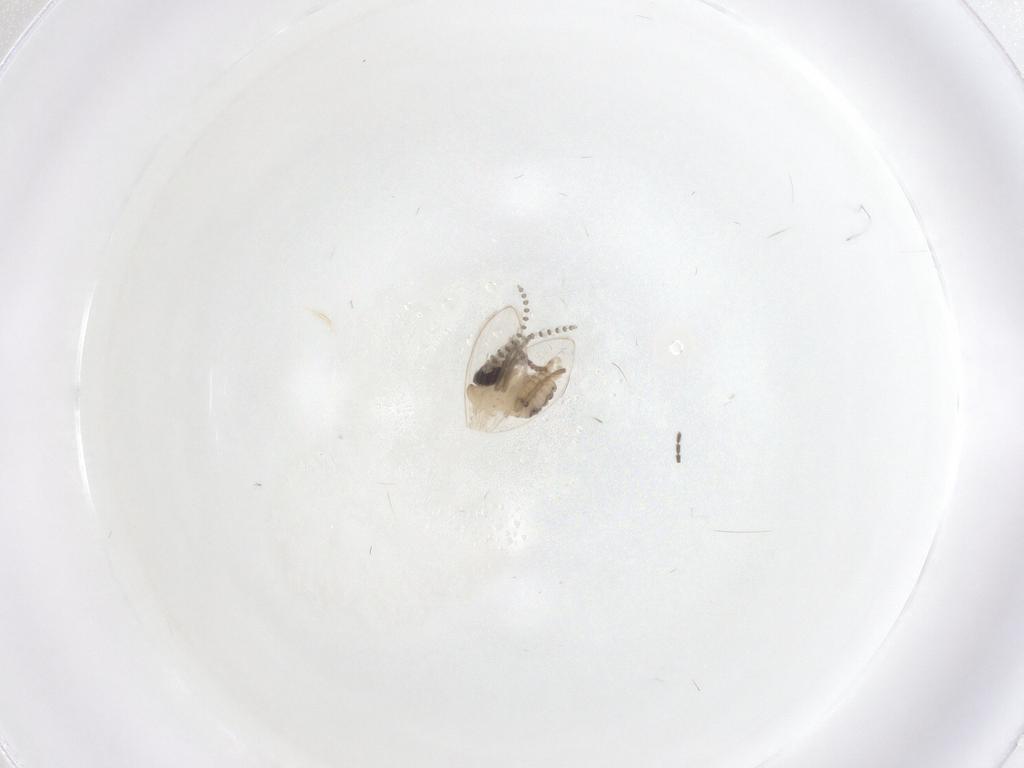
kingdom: Animalia
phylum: Arthropoda
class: Insecta
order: Diptera
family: Psychodidae
